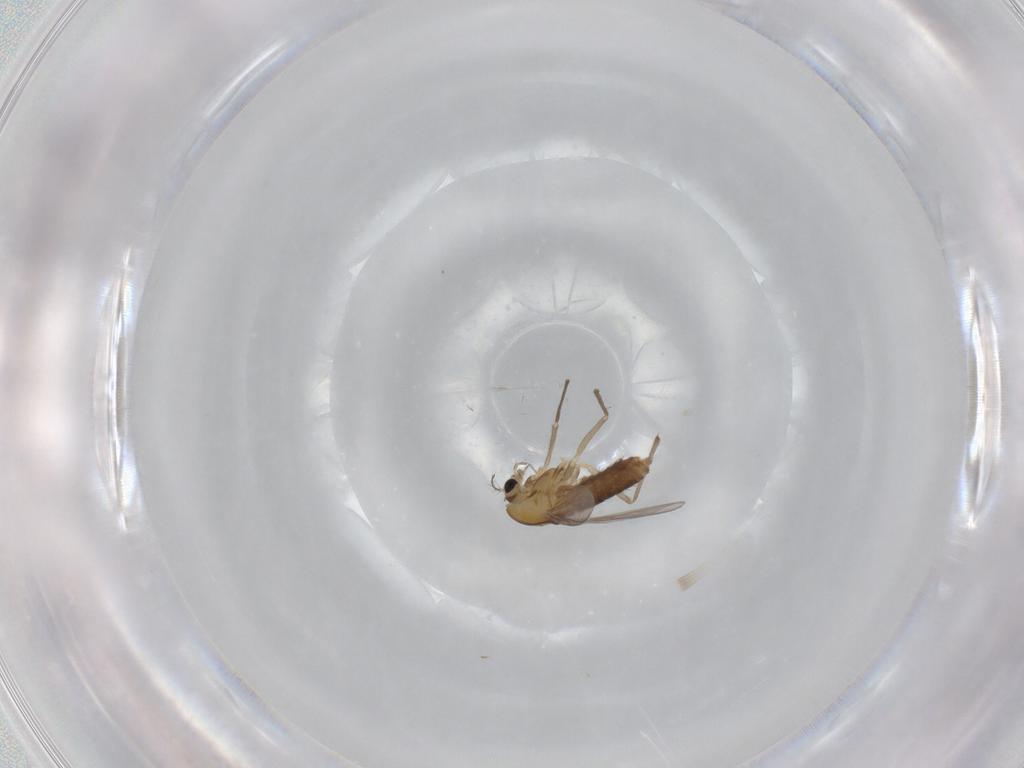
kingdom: Animalia
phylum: Arthropoda
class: Insecta
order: Diptera
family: Chironomidae
